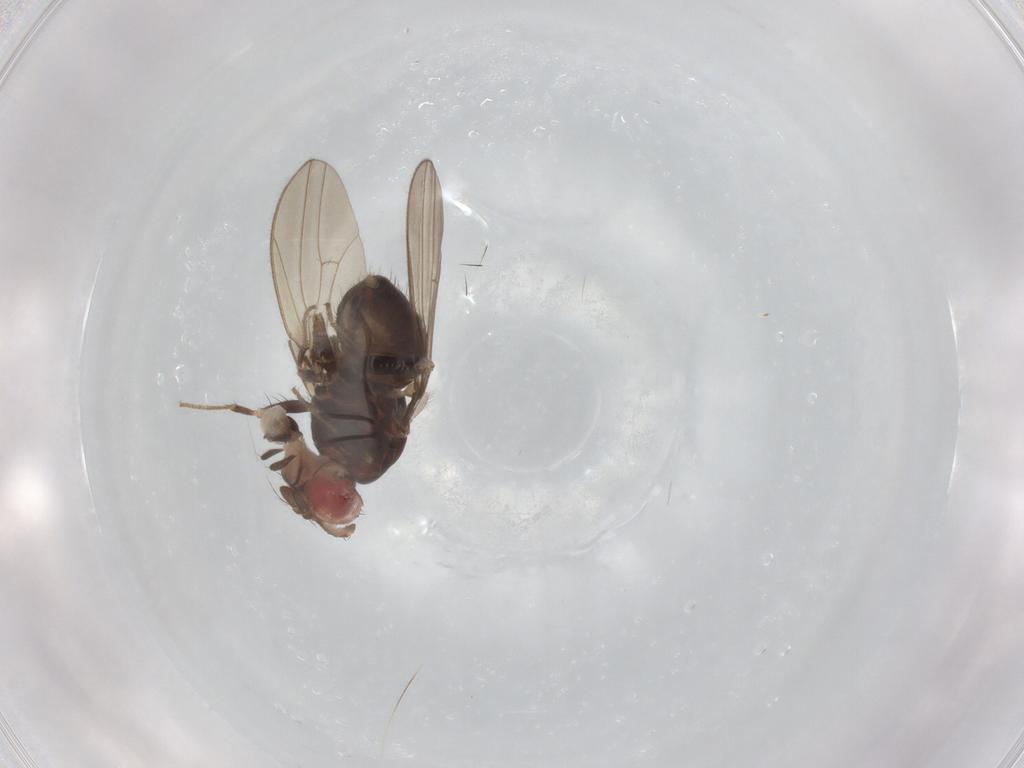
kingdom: Animalia
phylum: Arthropoda
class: Insecta
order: Diptera
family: Drosophilidae
